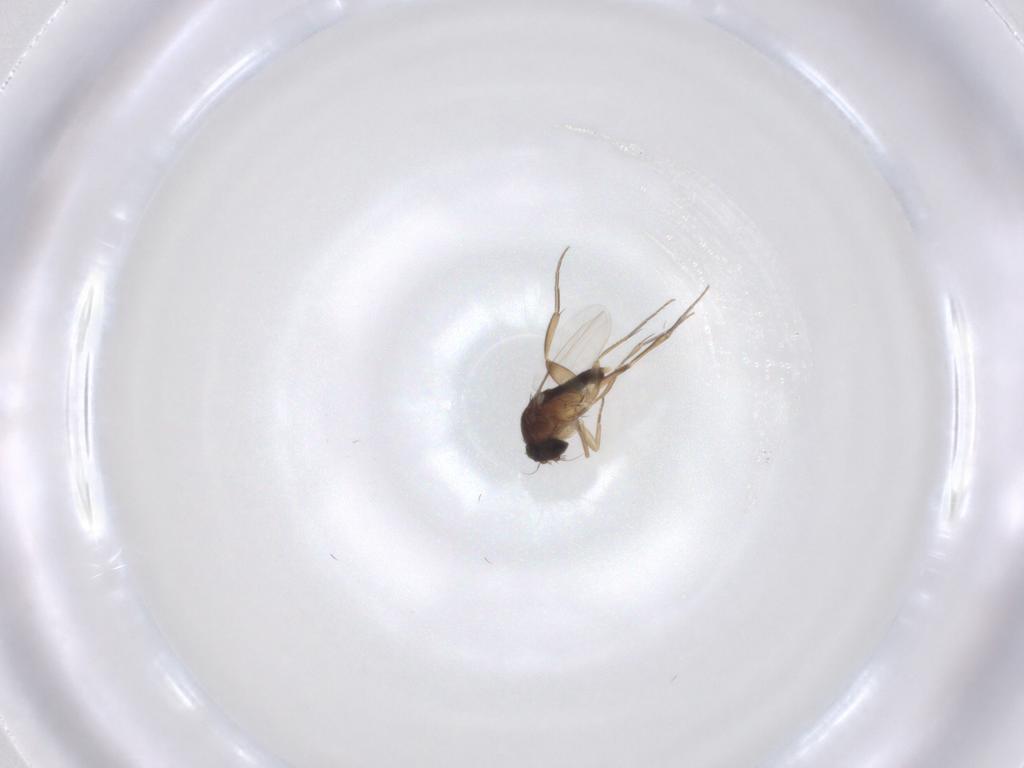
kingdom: Animalia
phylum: Arthropoda
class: Insecta
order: Diptera
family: Phoridae
